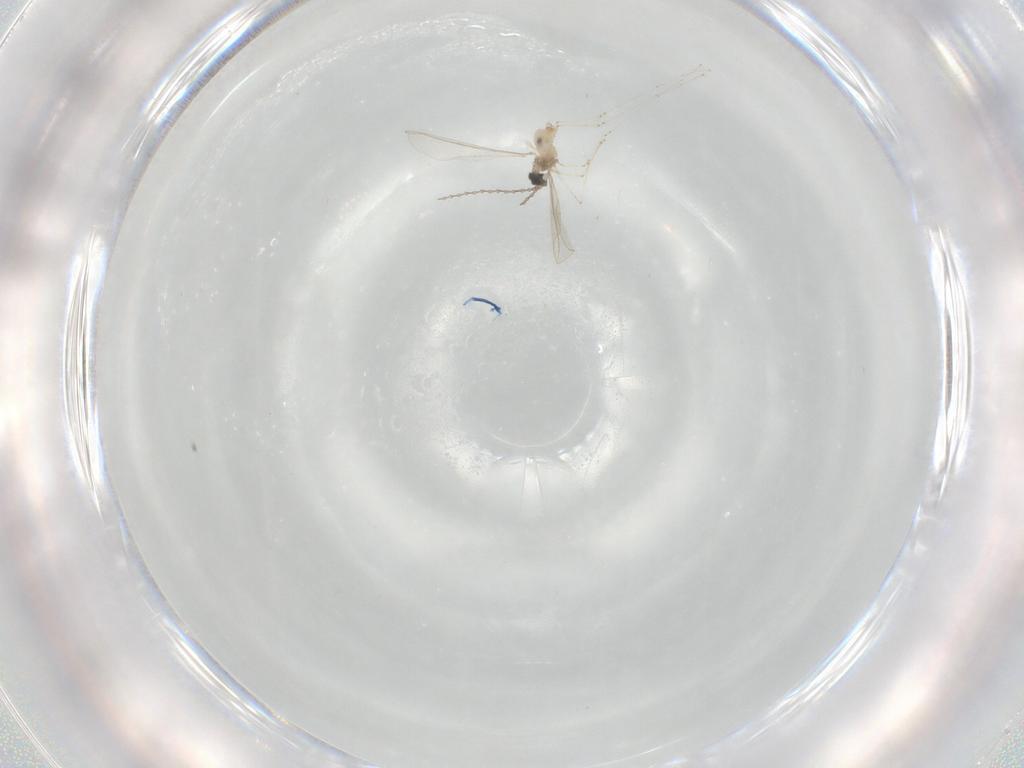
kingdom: Animalia
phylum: Arthropoda
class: Insecta
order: Diptera
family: Cecidomyiidae
